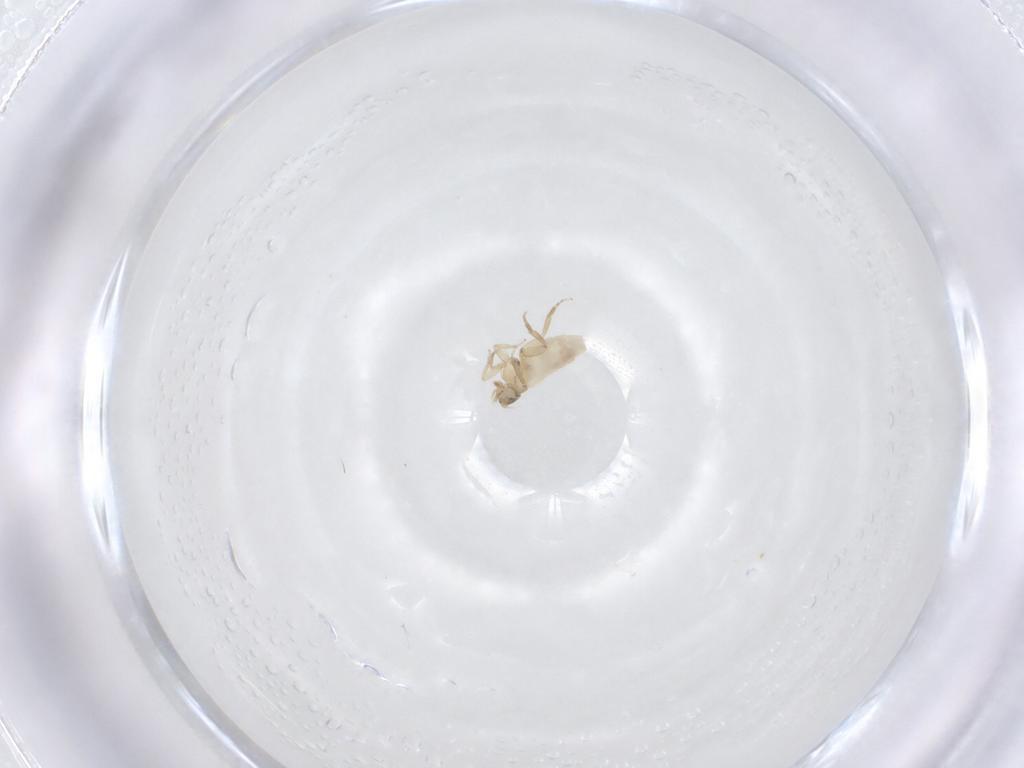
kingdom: Animalia
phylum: Arthropoda
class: Insecta
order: Diptera
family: Phoridae
